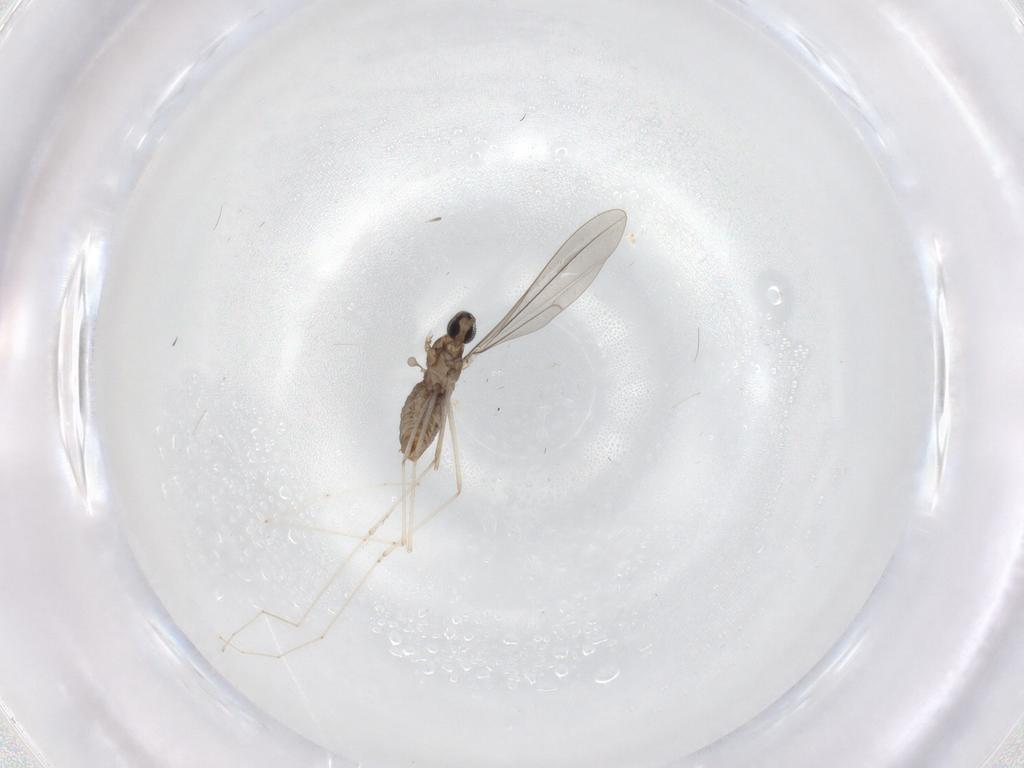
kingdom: Animalia
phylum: Arthropoda
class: Insecta
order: Diptera
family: Cecidomyiidae
